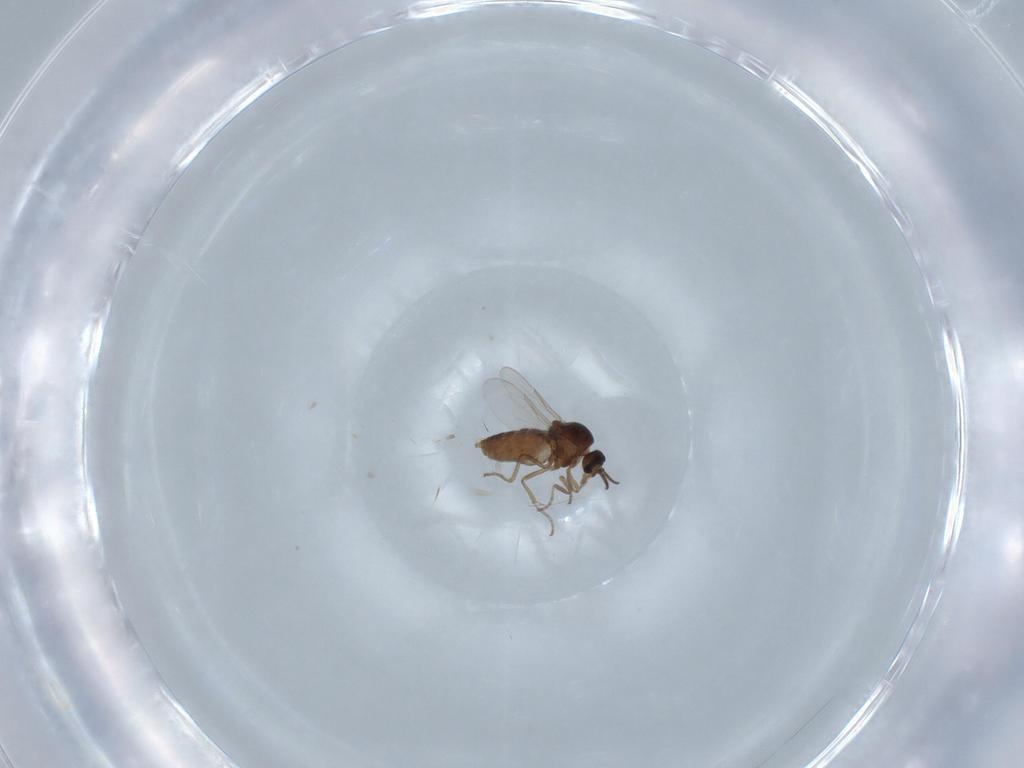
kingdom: Animalia
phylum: Arthropoda
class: Insecta
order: Diptera
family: Ceratopogonidae
